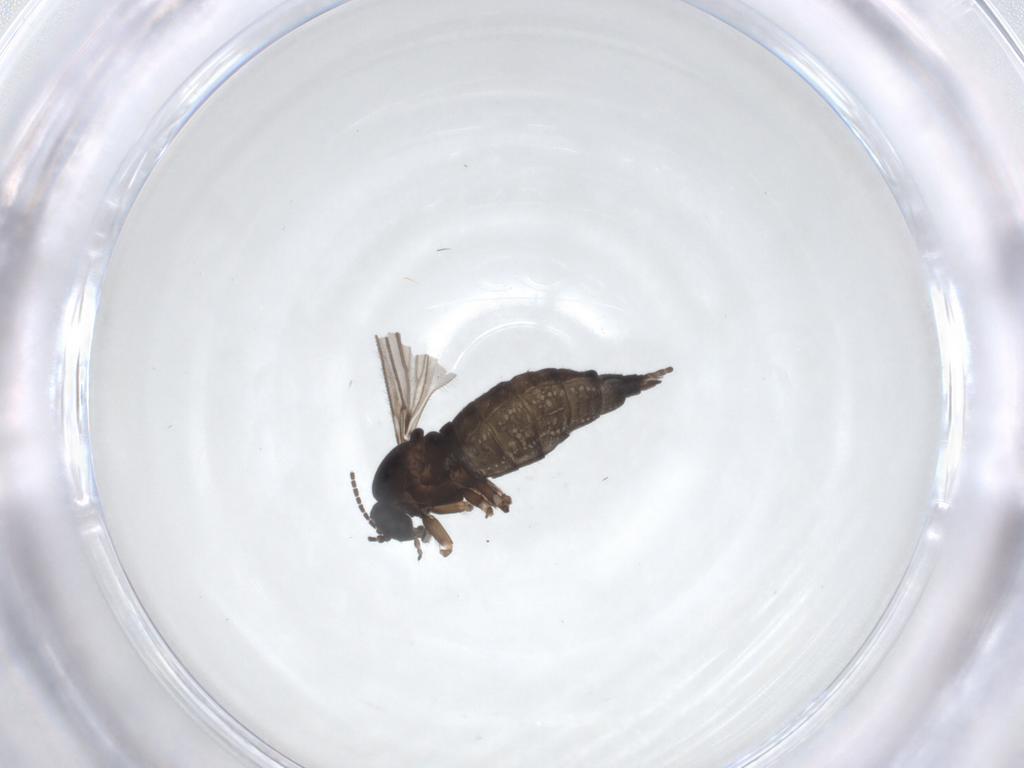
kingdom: Animalia
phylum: Arthropoda
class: Insecta
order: Diptera
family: Sciaridae
